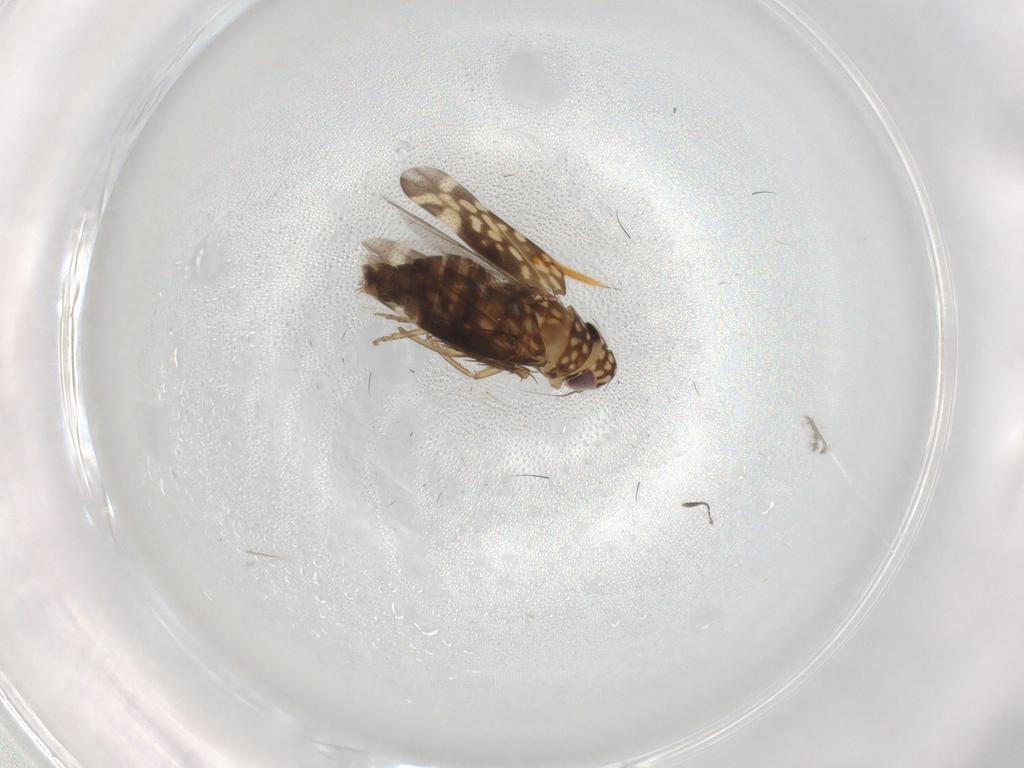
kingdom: Animalia
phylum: Arthropoda
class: Insecta
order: Hemiptera
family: Cicadellidae
